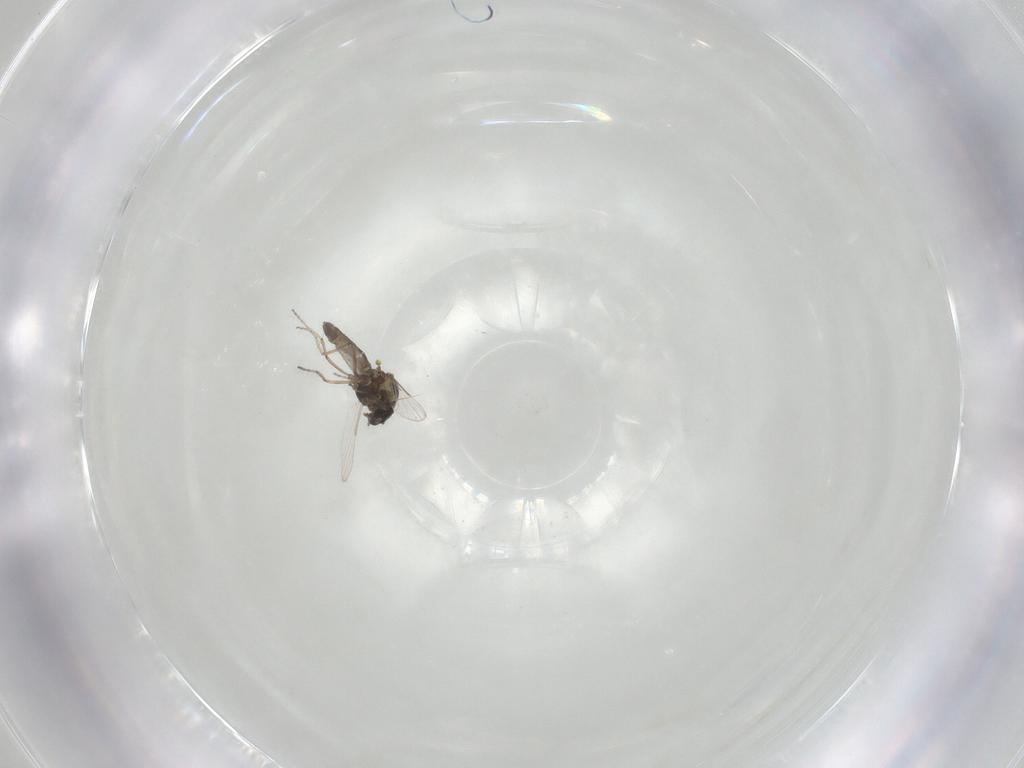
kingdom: Animalia
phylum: Arthropoda
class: Insecta
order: Diptera
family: Ceratopogonidae
